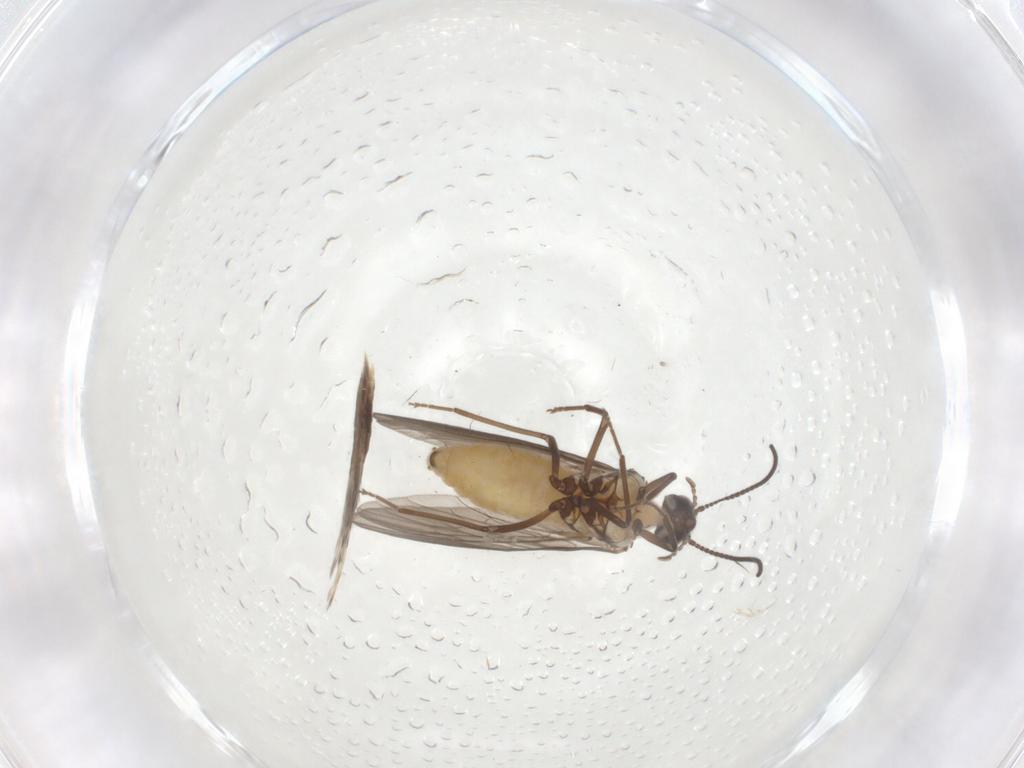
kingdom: Animalia
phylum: Arthropoda
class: Insecta
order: Neuroptera
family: Coniopterygidae
